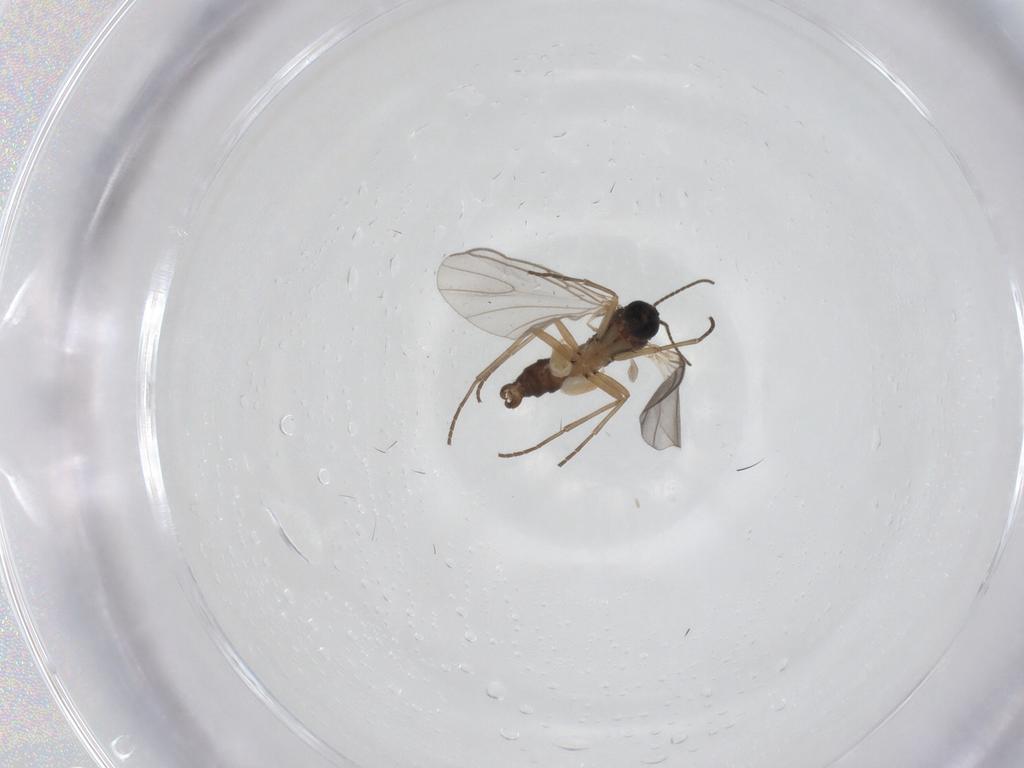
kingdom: Animalia
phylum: Arthropoda
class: Insecta
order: Diptera
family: Sciaridae
